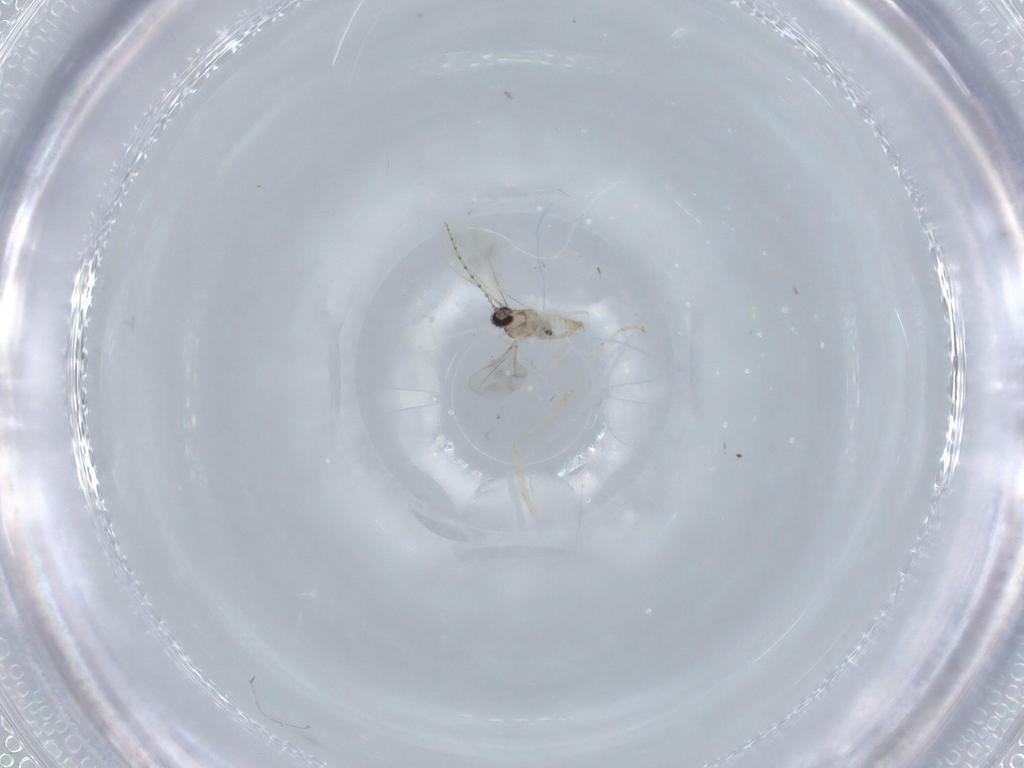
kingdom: Animalia
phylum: Arthropoda
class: Insecta
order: Diptera
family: Cecidomyiidae
